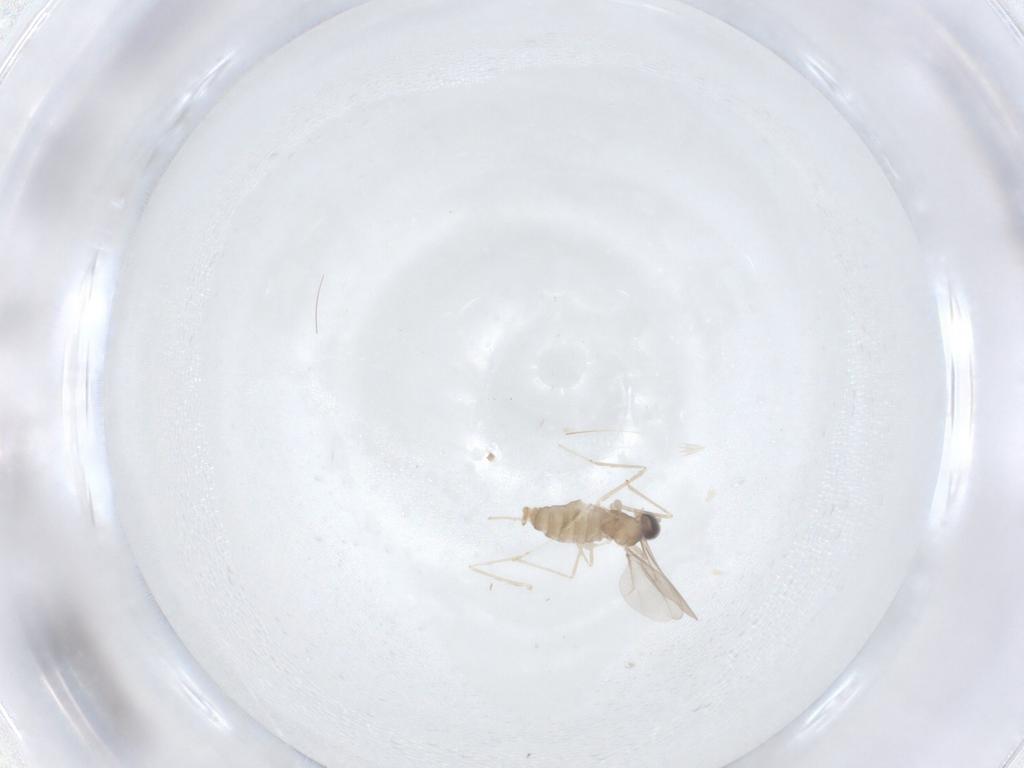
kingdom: Animalia
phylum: Arthropoda
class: Insecta
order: Diptera
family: Cecidomyiidae
